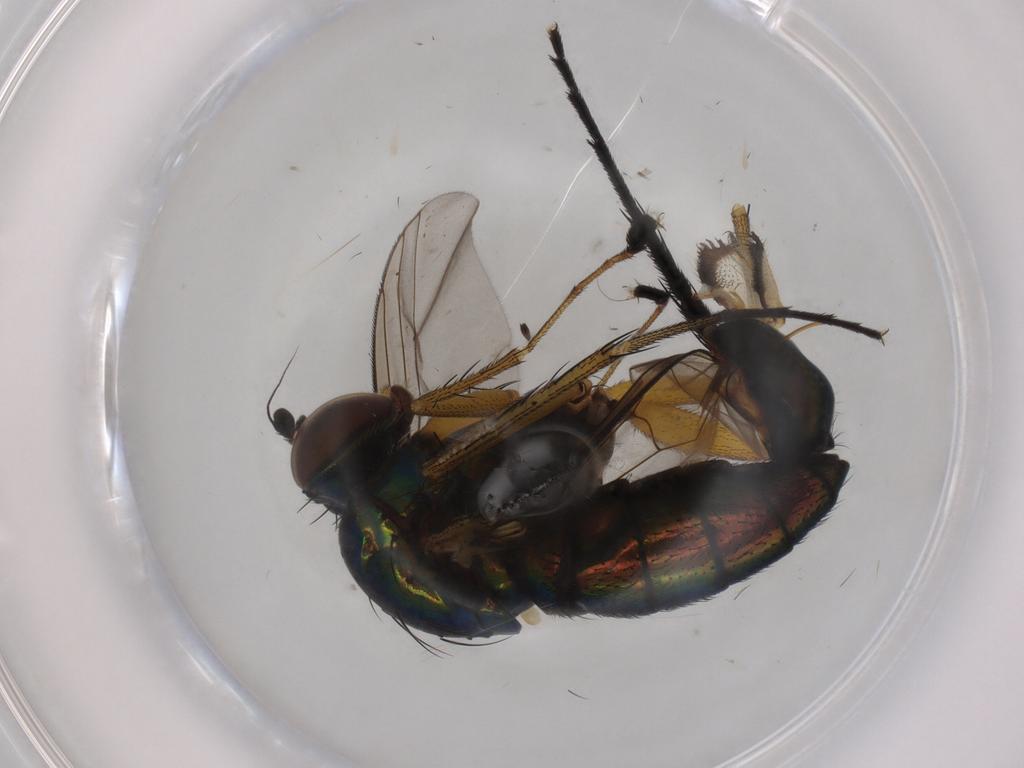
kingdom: Animalia
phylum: Arthropoda
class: Insecta
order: Diptera
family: Dolichopodidae
